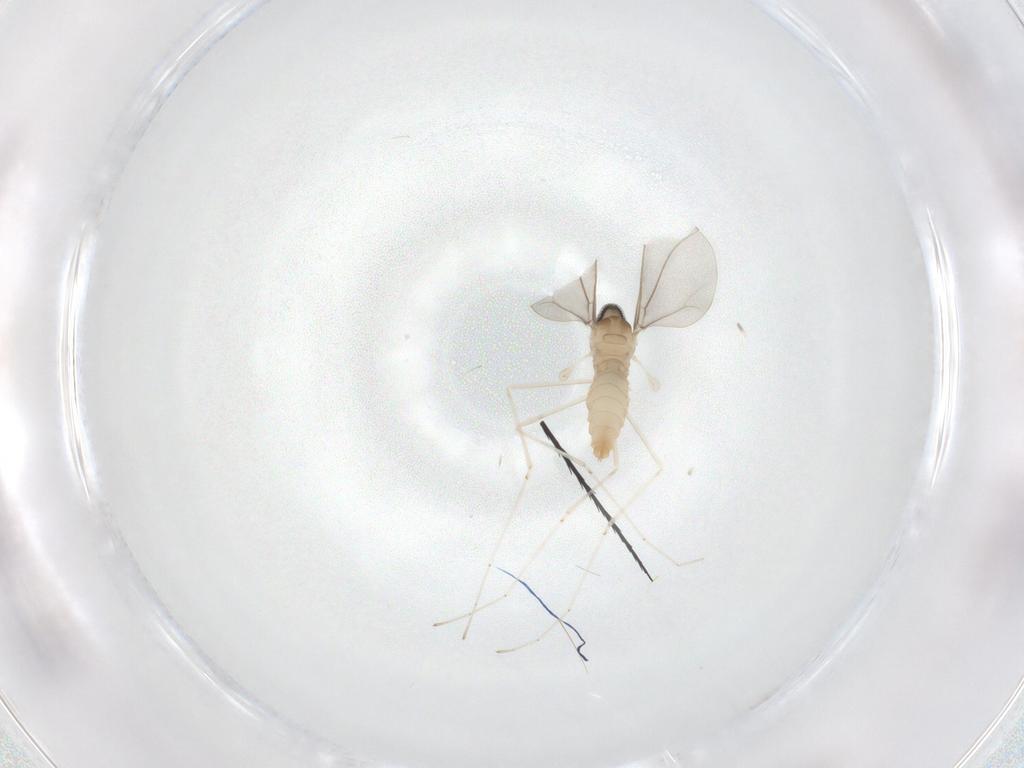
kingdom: Animalia
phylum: Arthropoda
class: Insecta
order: Diptera
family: Cecidomyiidae
